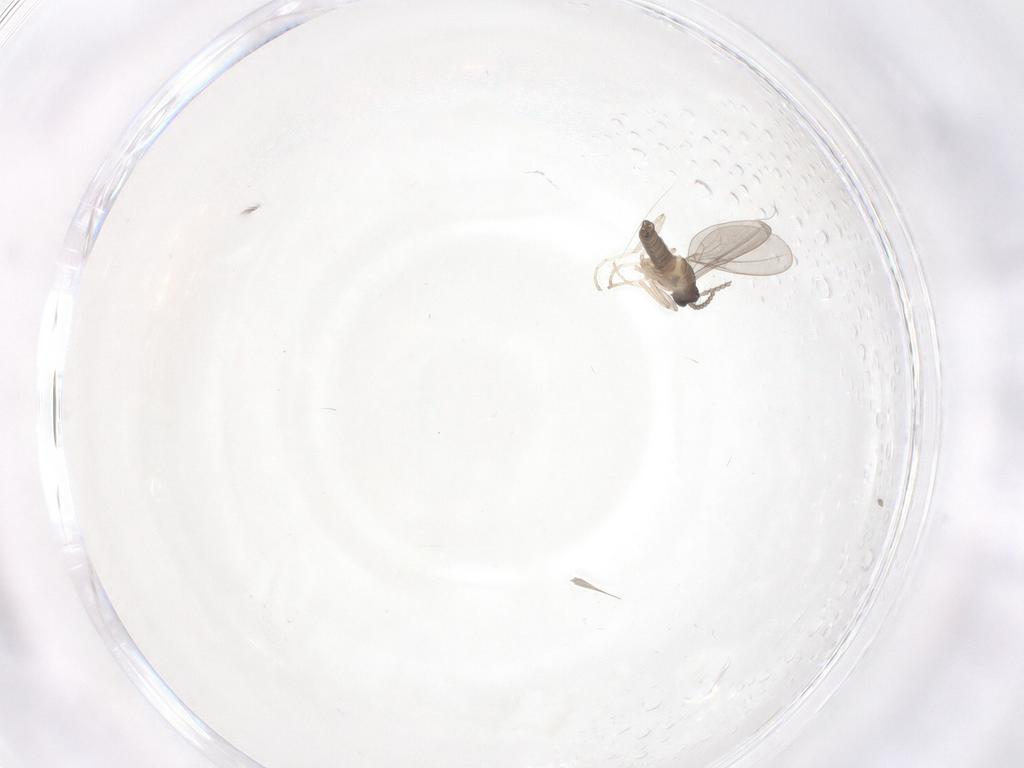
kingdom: Animalia
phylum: Arthropoda
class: Insecta
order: Diptera
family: Cecidomyiidae
